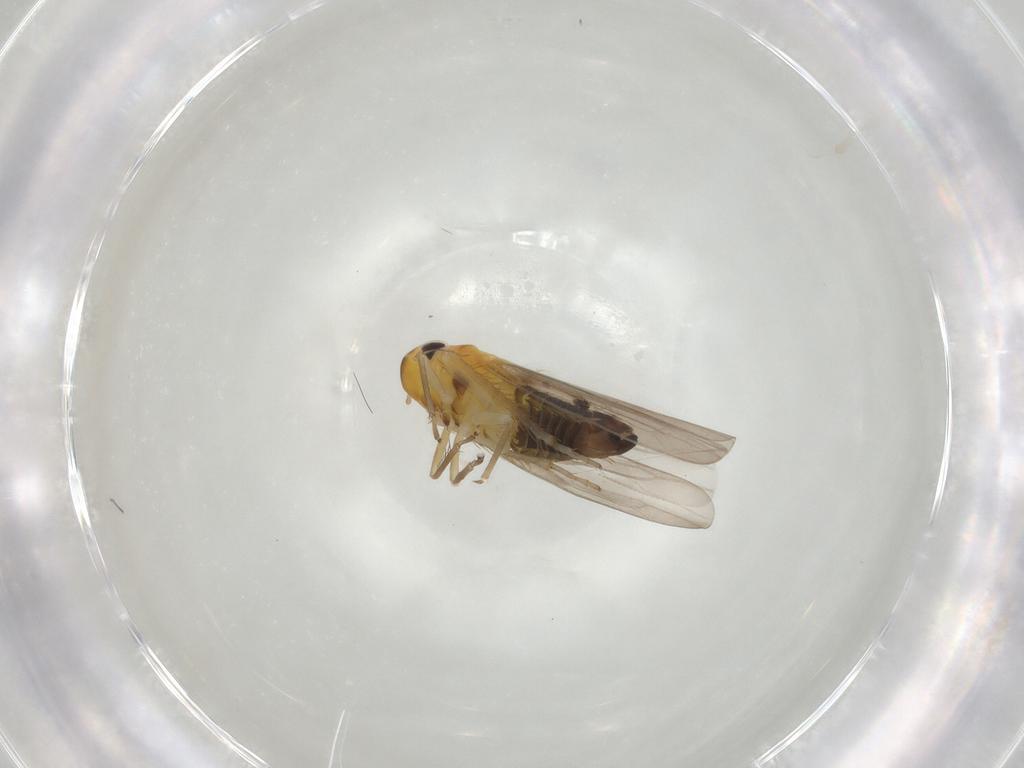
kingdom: Animalia
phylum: Arthropoda
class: Insecta
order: Hemiptera
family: Cicadellidae
